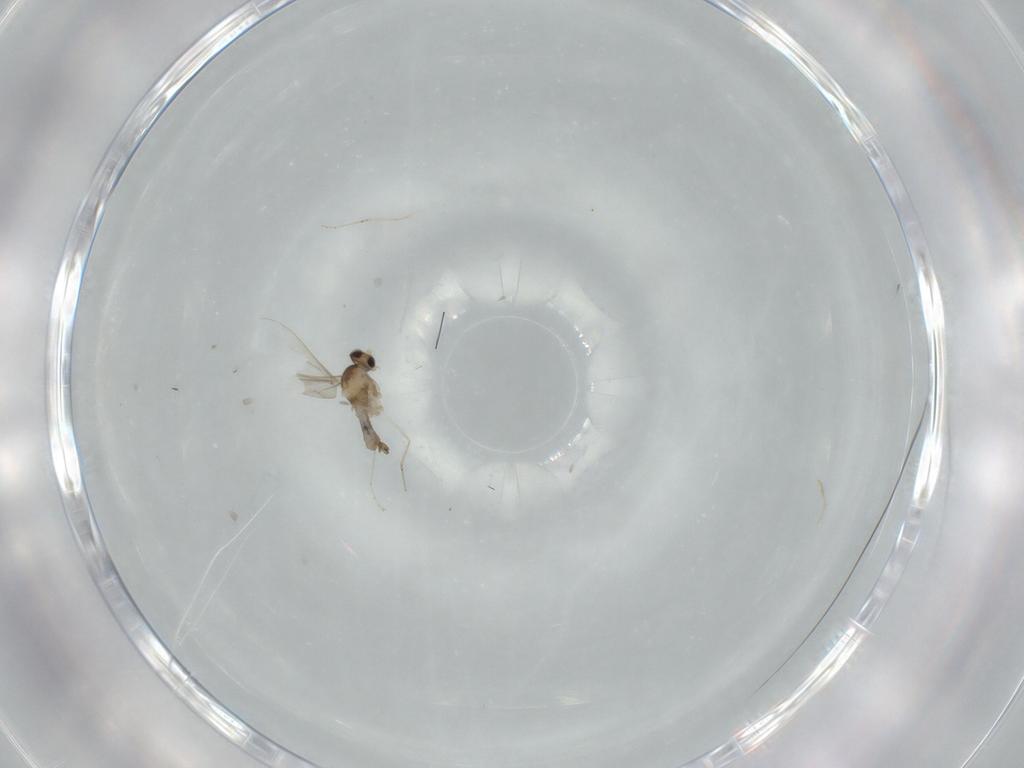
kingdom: Animalia
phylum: Arthropoda
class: Insecta
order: Diptera
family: Cecidomyiidae
